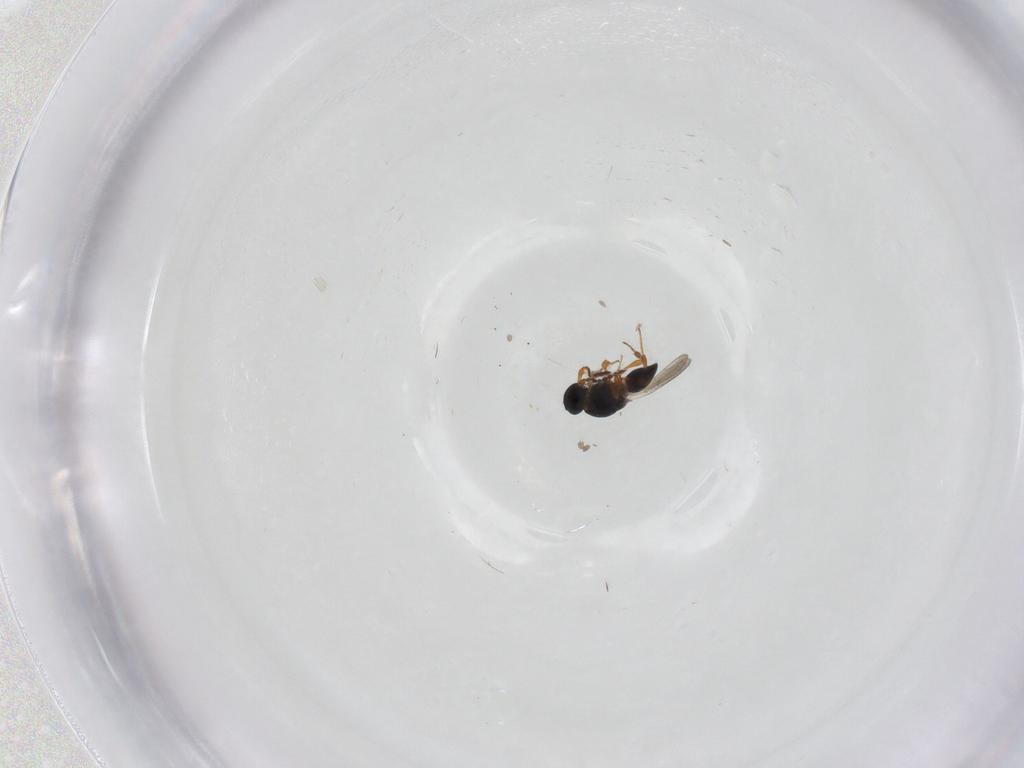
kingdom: Animalia
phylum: Arthropoda
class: Insecta
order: Hymenoptera
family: Platygastridae
